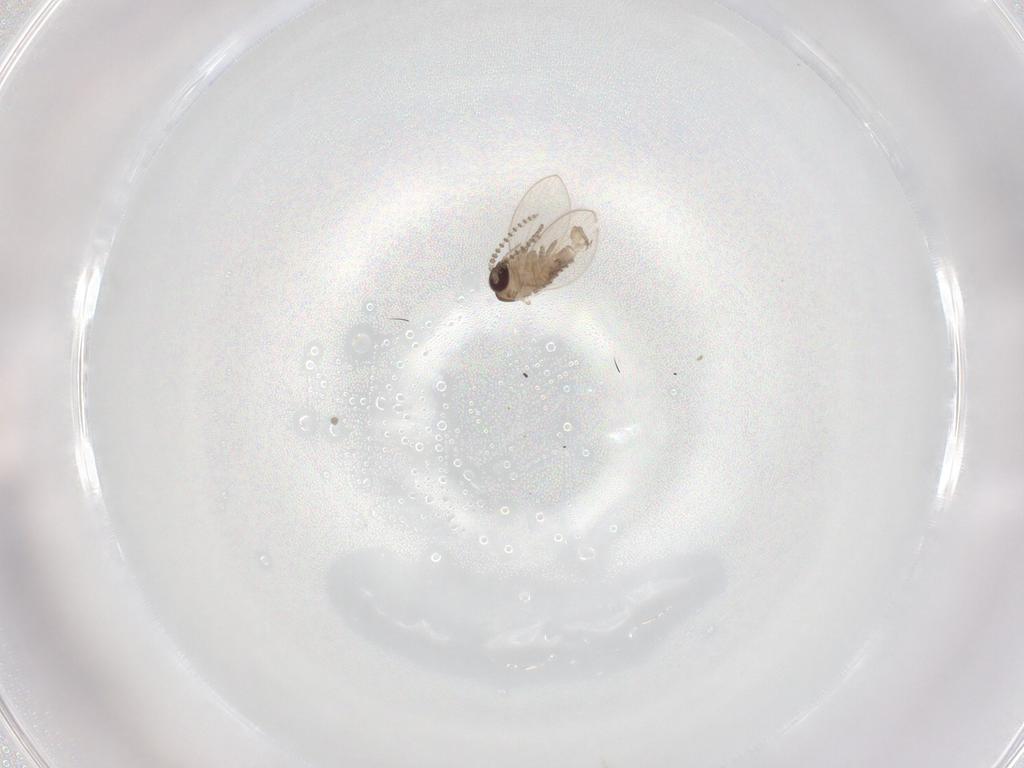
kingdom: Animalia
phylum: Arthropoda
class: Insecta
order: Diptera
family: Psychodidae
